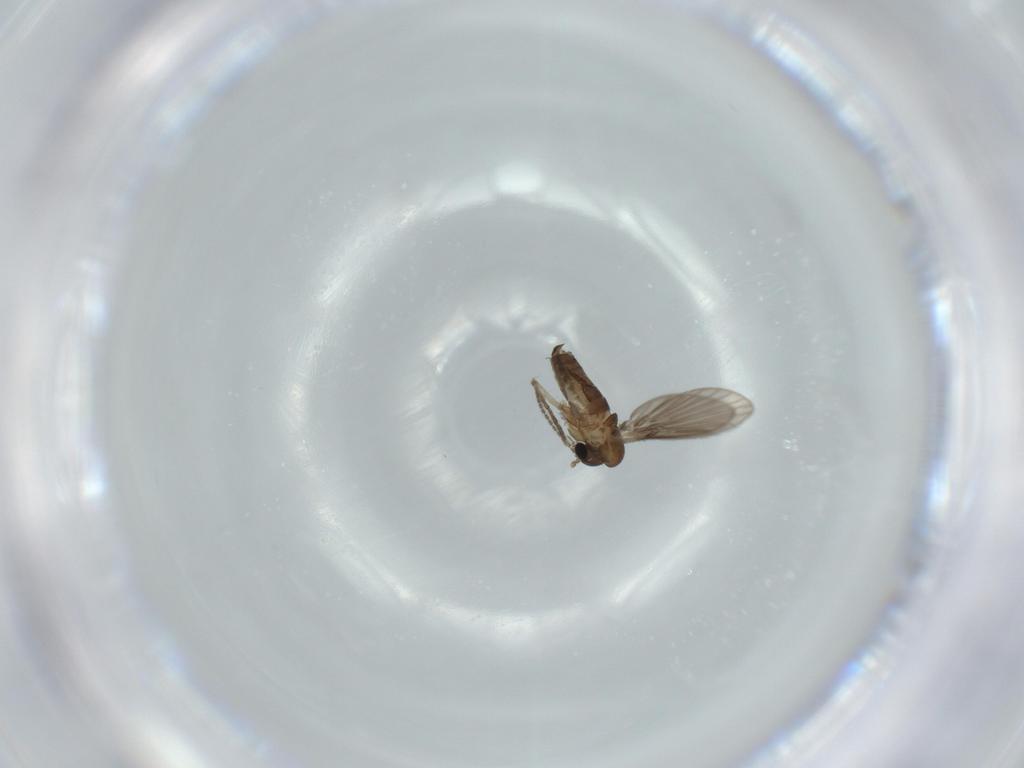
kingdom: Animalia
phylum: Arthropoda
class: Insecta
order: Diptera
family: Psychodidae
